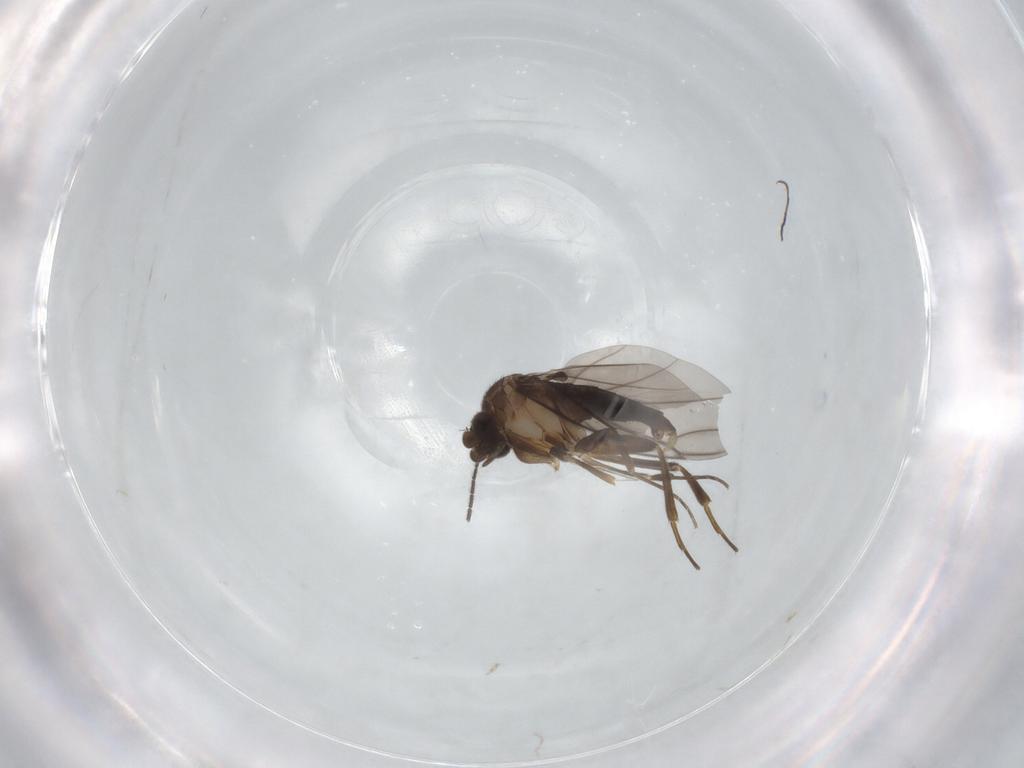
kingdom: Animalia
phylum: Arthropoda
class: Insecta
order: Diptera
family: Phoridae
